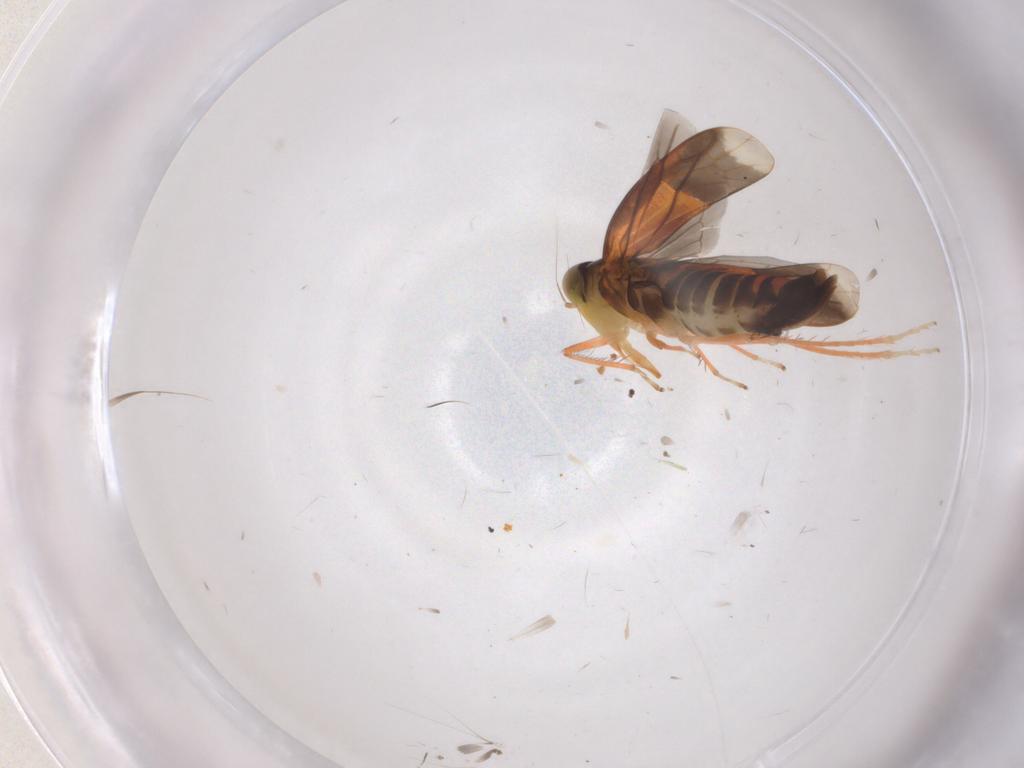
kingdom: Animalia
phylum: Arthropoda
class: Insecta
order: Hemiptera
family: Cicadellidae
